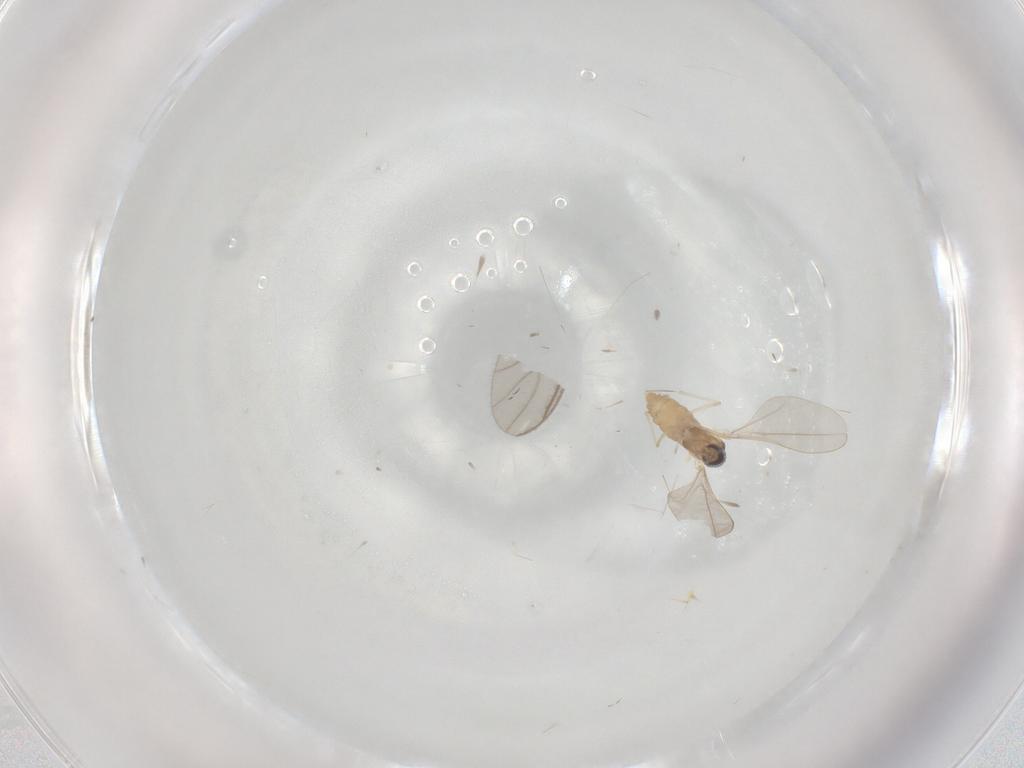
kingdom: Animalia
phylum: Arthropoda
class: Insecta
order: Diptera
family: Cecidomyiidae
